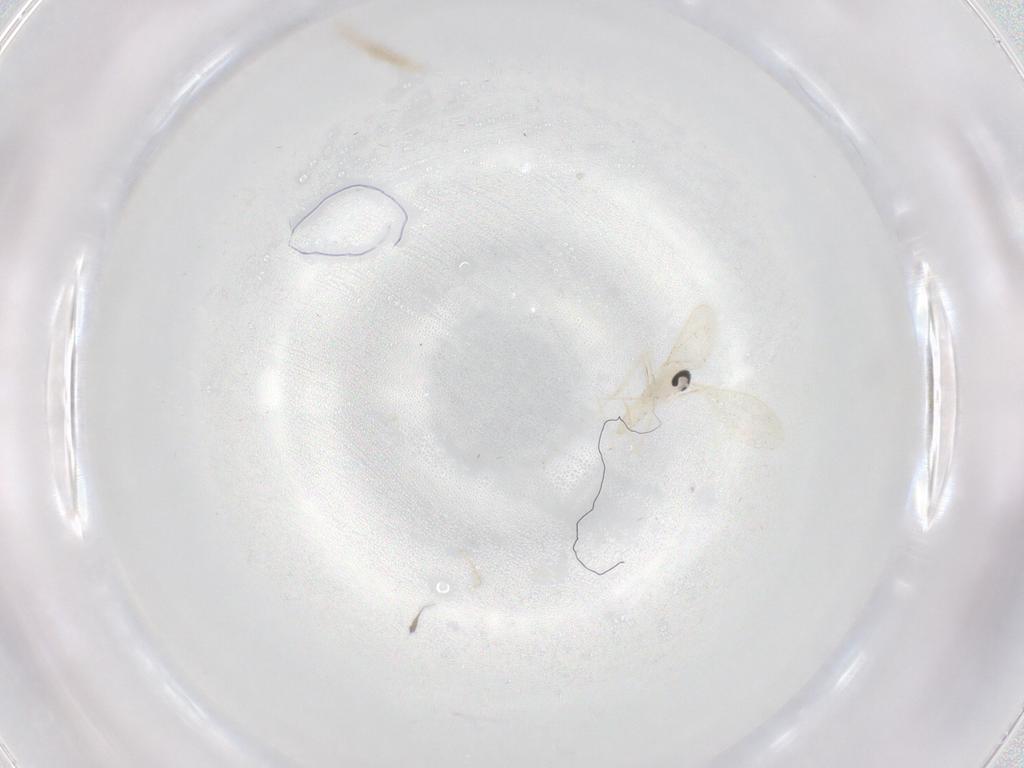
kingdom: Animalia
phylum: Arthropoda
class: Insecta
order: Diptera
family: Cecidomyiidae
